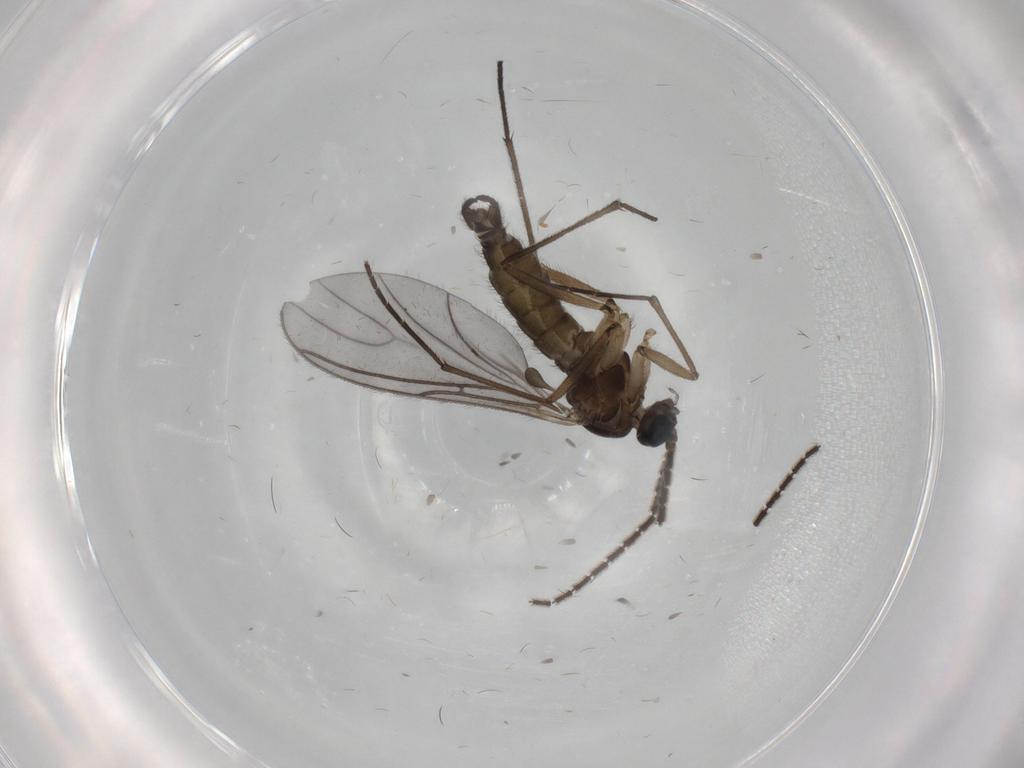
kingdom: Animalia
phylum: Arthropoda
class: Insecta
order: Diptera
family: Sciaridae
